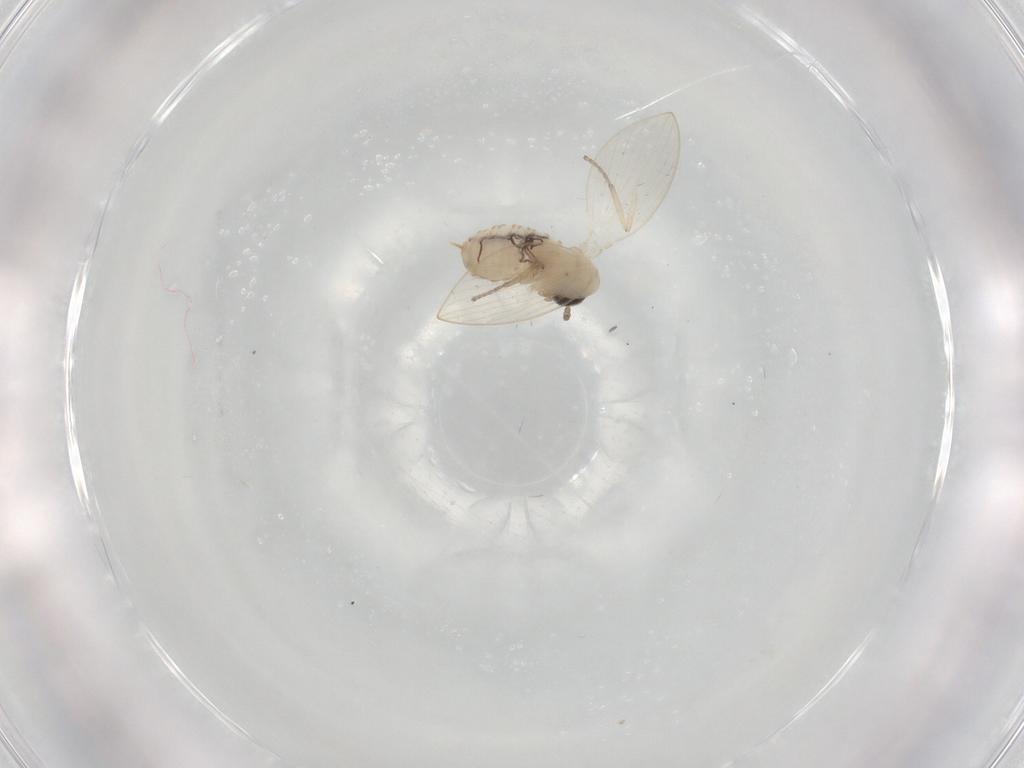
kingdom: Animalia
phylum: Arthropoda
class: Insecta
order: Diptera
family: Psychodidae
